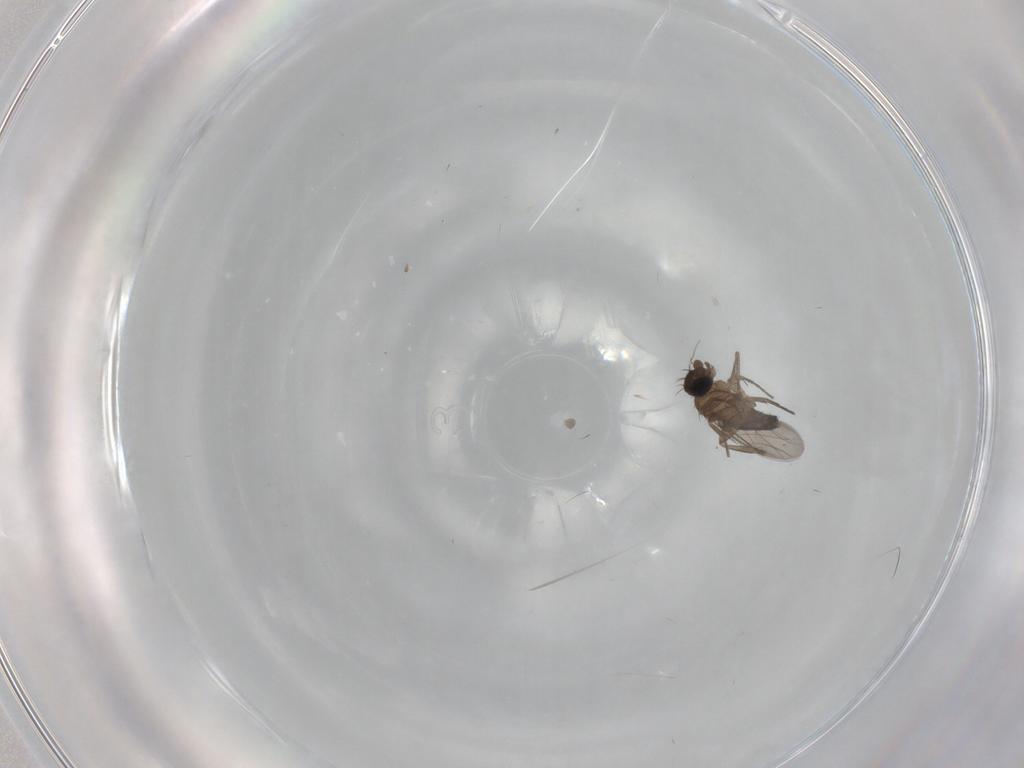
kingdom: Animalia
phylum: Arthropoda
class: Insecta
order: Diptera
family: Phoridae
